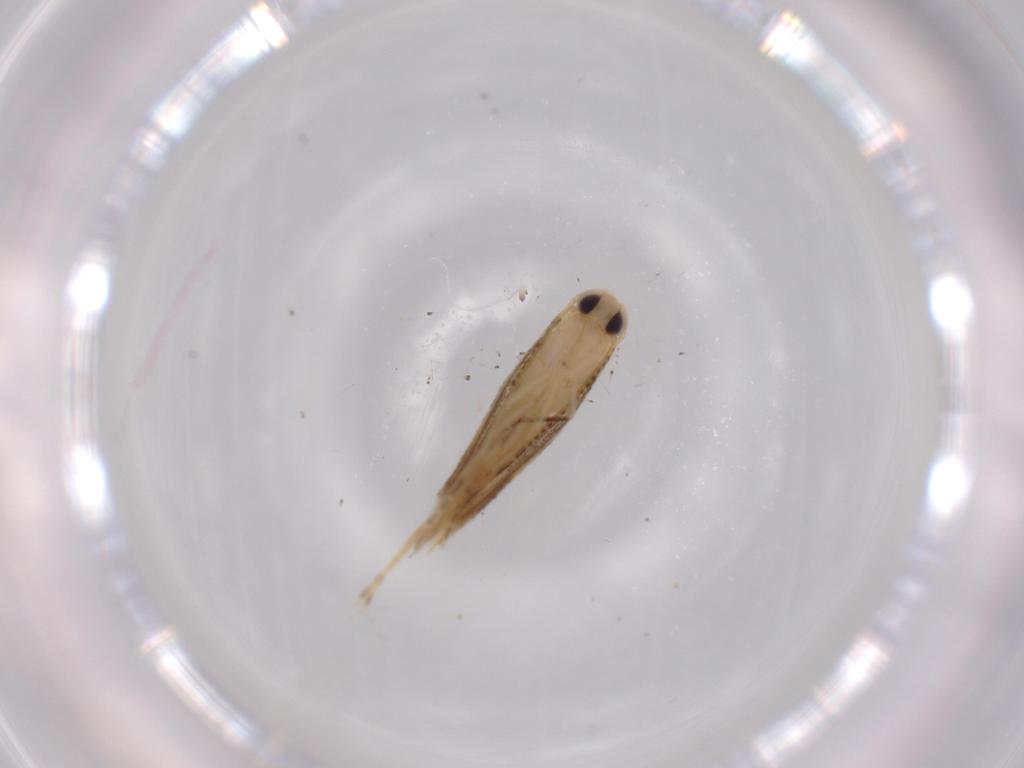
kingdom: Animalia
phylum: Arthropoda
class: Insecta
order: Lepidoptera
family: Bucculatricidae
